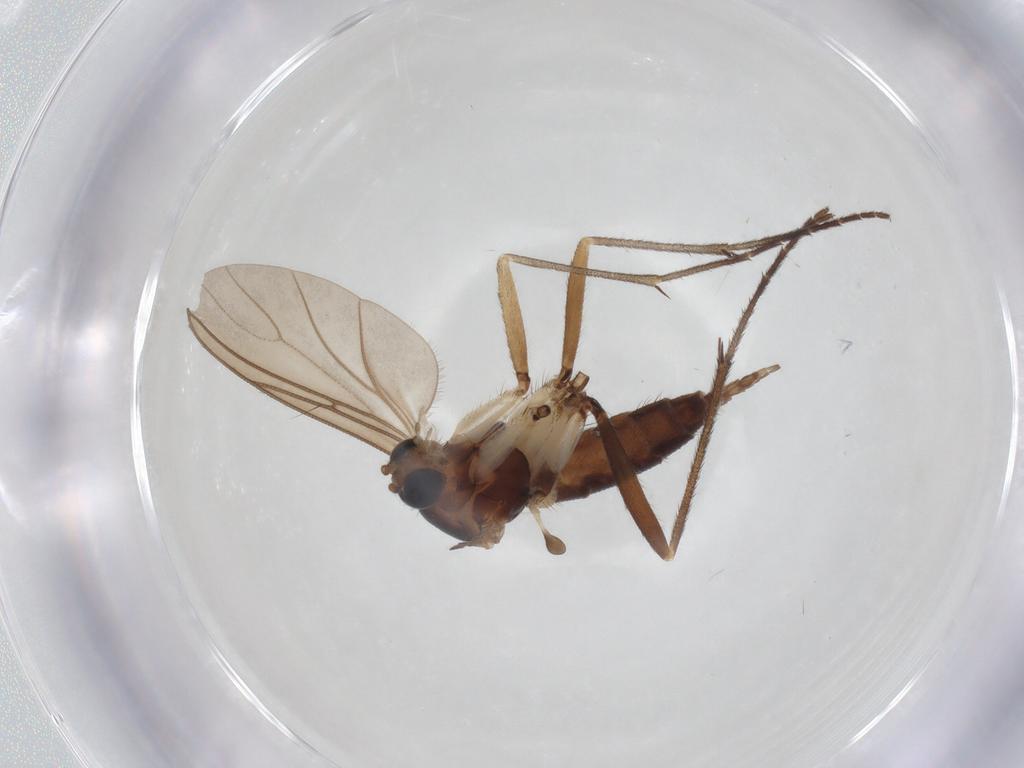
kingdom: Animalia
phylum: Arthropoda
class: Insecta
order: Diptera
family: Sciaridae
